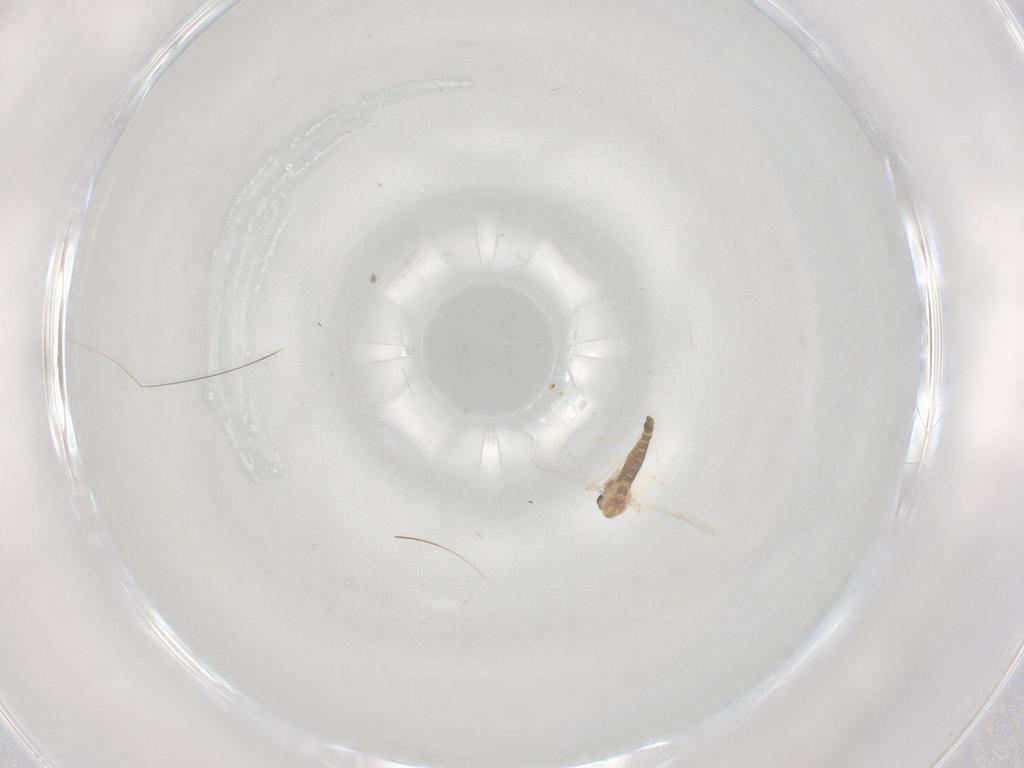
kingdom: Animalia
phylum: Arthropoda
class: Insecta
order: Diptera
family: Chironomidae
